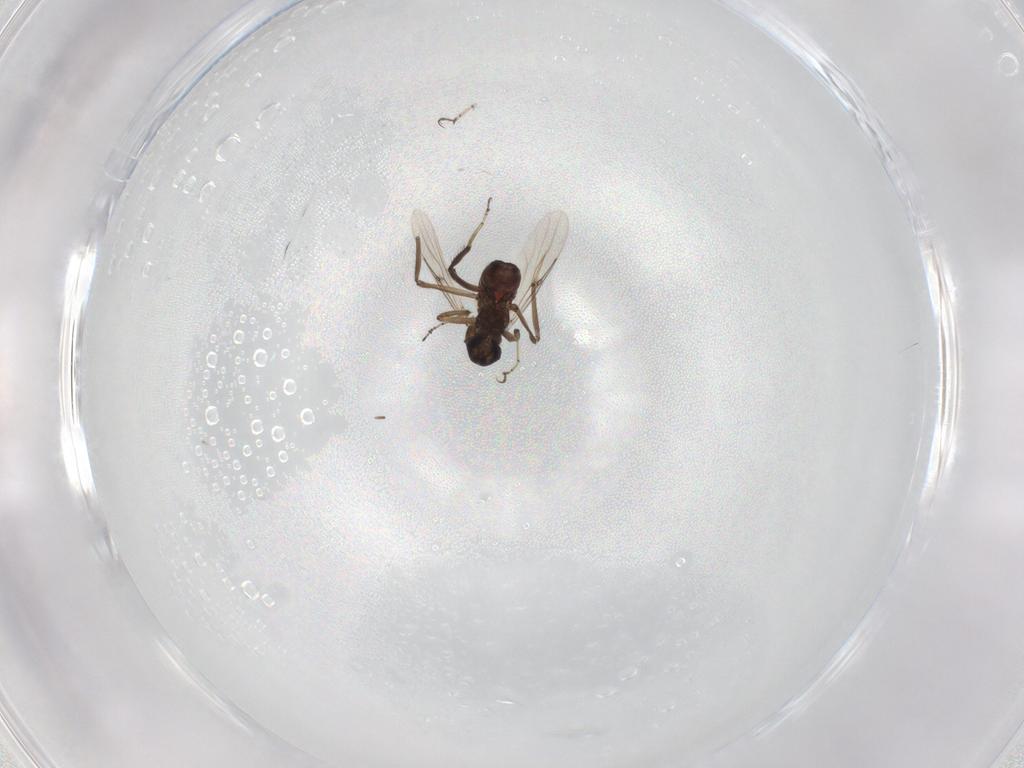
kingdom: Animalia
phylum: Arthropoda
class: Insecta
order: Diptera
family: Ceratopogonidae
